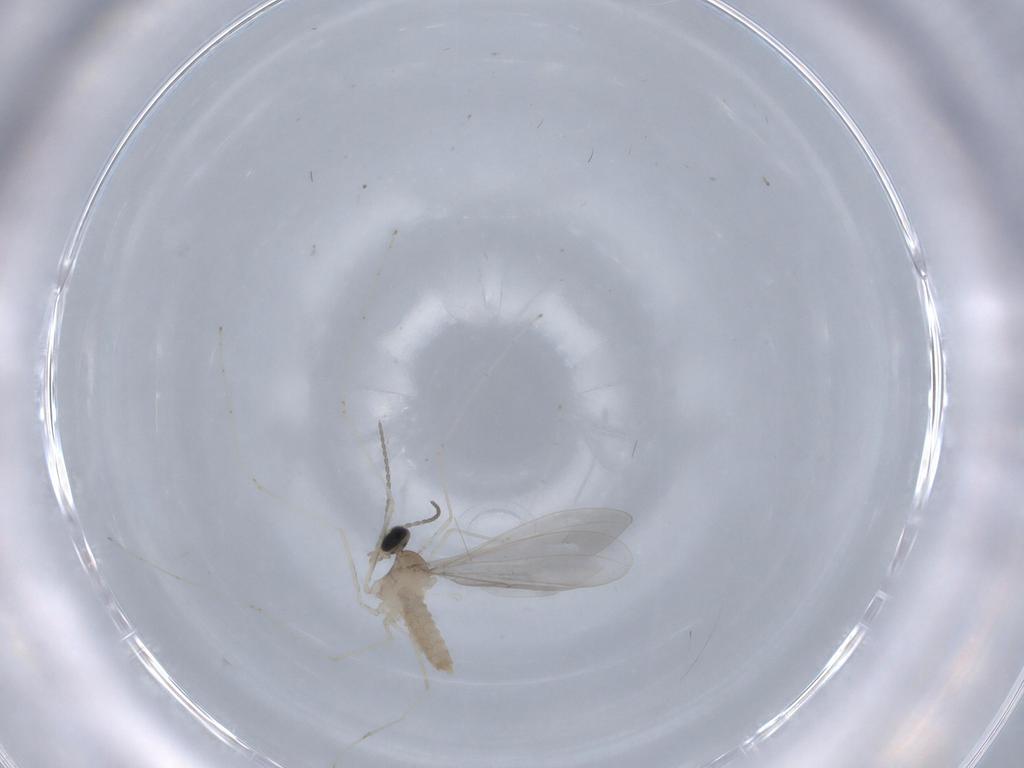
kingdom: Animalia
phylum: Arthropoda
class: Insecta
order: Diptera
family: Cecidomyiidae
